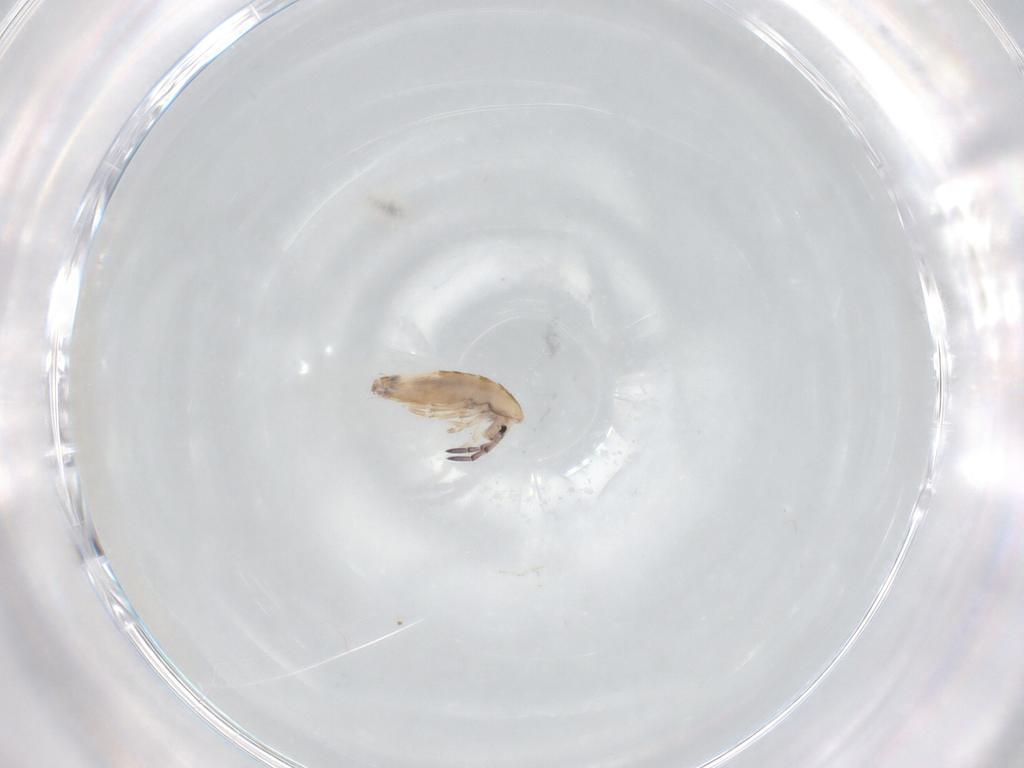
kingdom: Animalia
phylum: Arthropoda
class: Collembola
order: Entomobryomorpha
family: Entomobryidae
